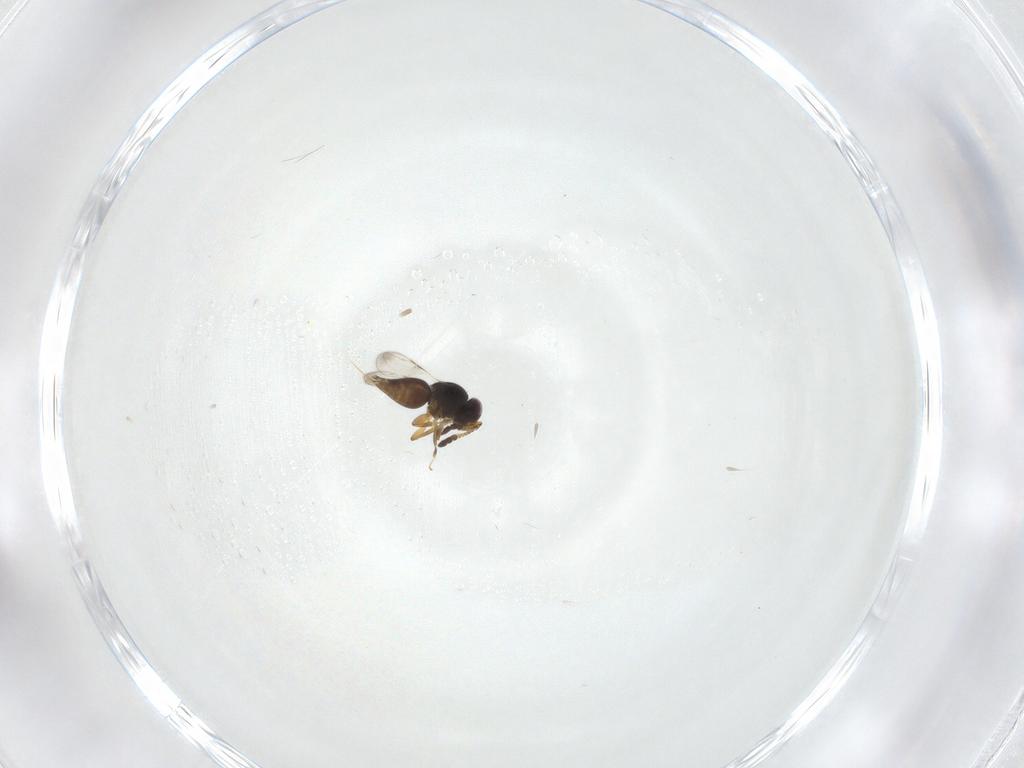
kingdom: Animalia
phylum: Arthropoda
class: Insecta
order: Hymenoptera
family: Ceraphronidae
